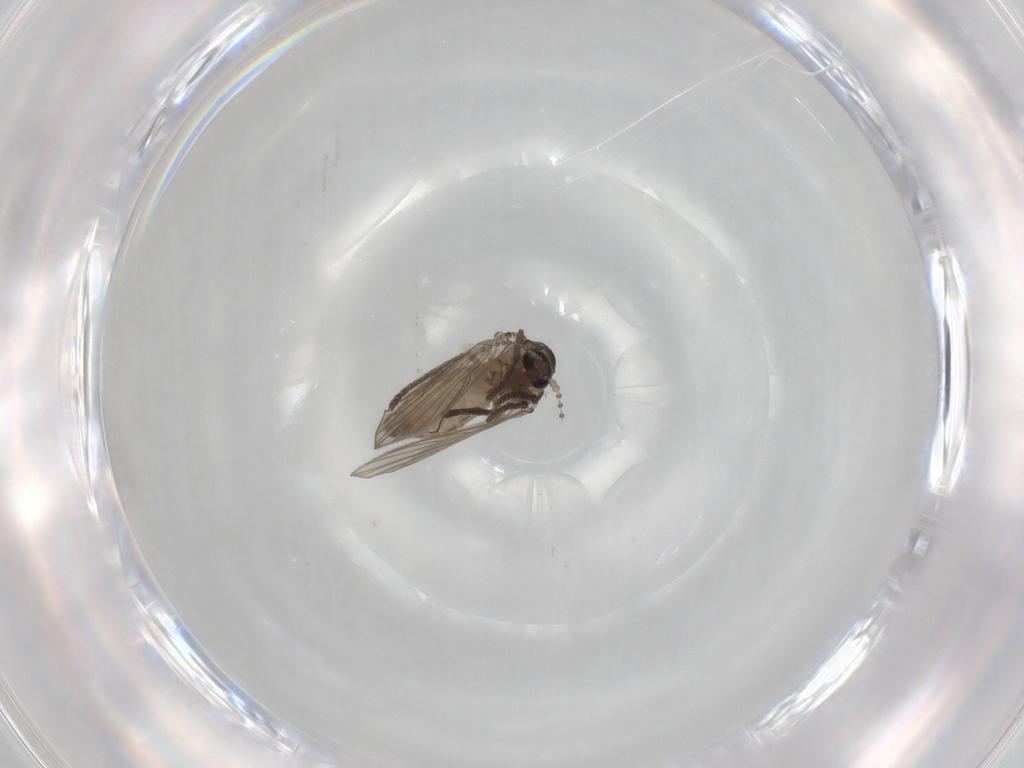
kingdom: Animalia
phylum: Arthropoda
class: Insecta
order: Diptera
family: Psychodidae
